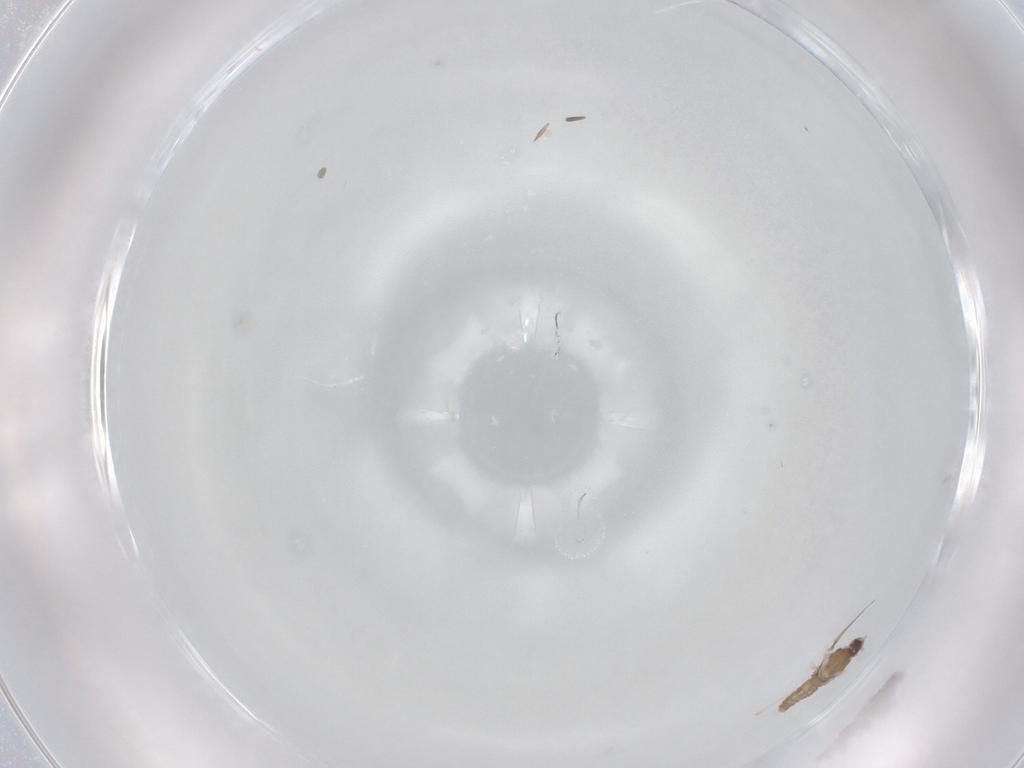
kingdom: Animalia
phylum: Arthropoda
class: Insecta
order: Diptera
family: Cecidomyiidae
